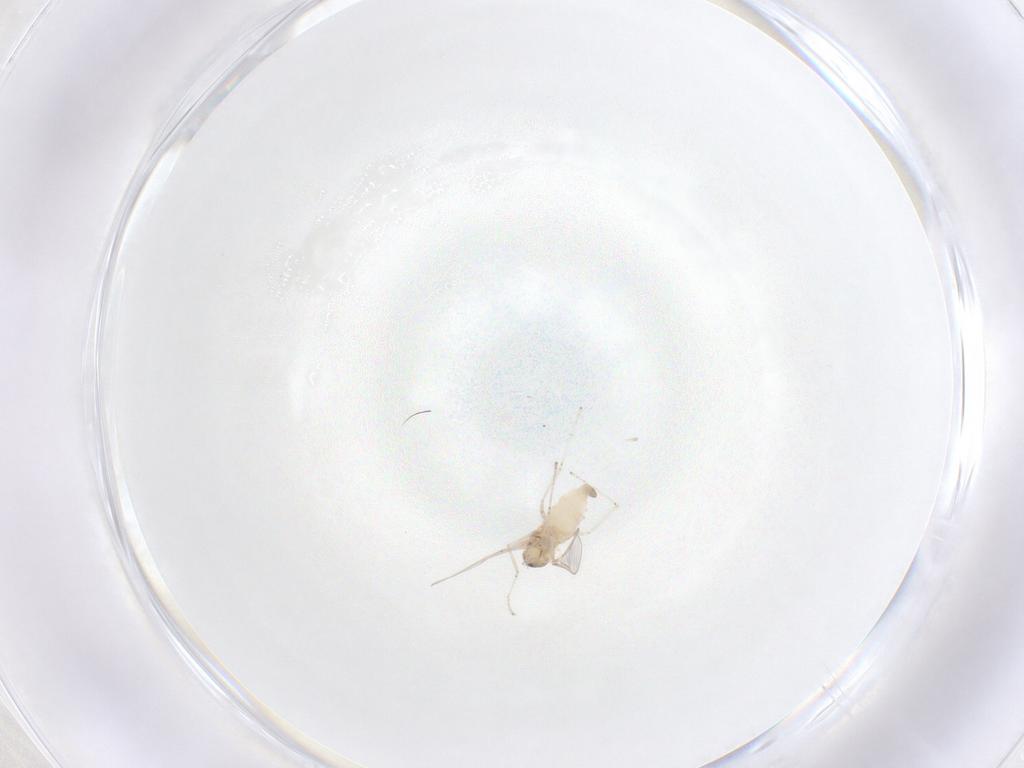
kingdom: Animalia
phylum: Arthropoda
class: Insecta
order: Diptera
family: Cecidomyiidae
